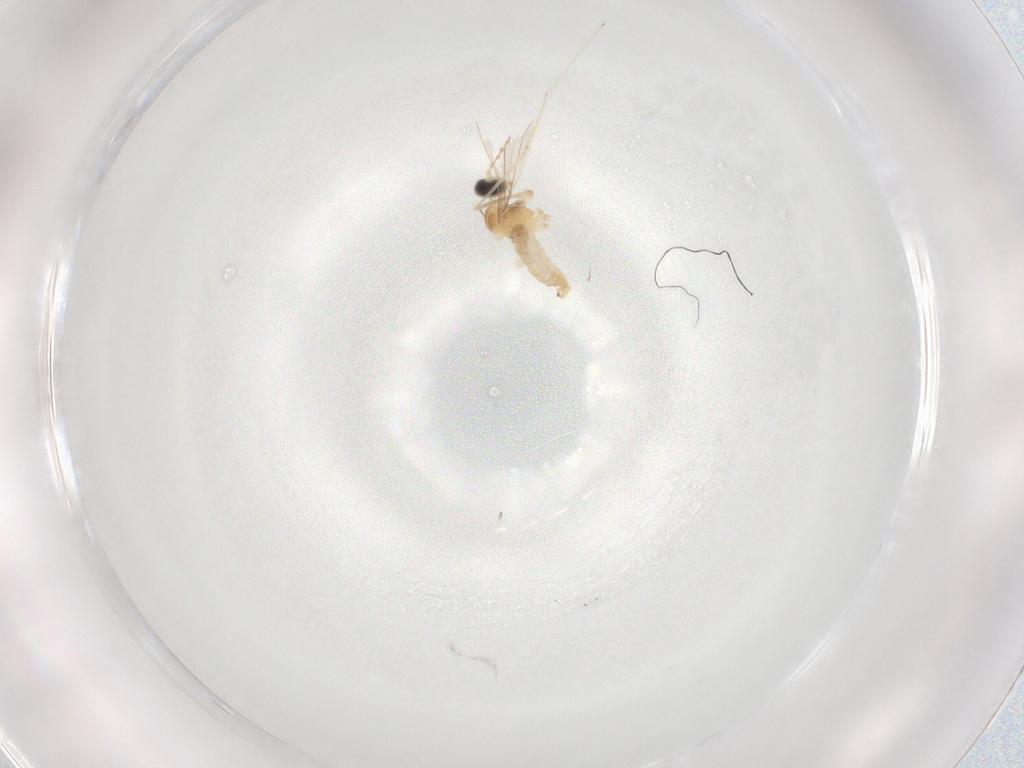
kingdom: Animalia
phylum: Arthropoda
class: Insecta
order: Diptera
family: Cecidomyiidae
